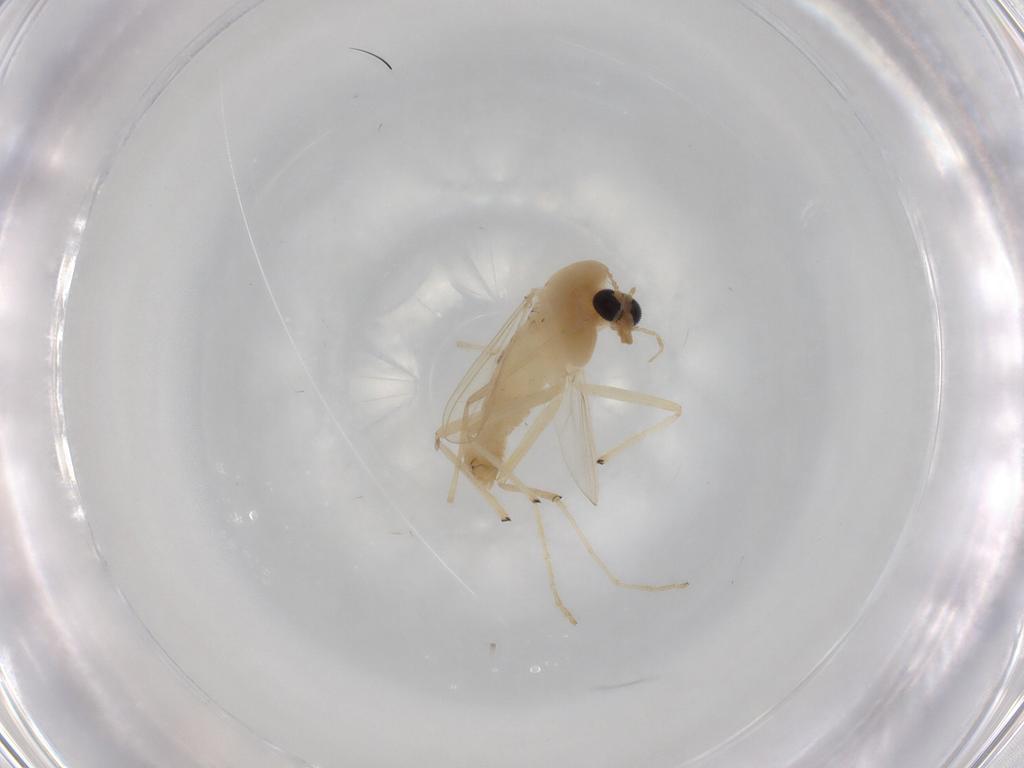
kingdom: Animalia
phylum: Arthropoda
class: Insecta
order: Diptera
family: Chironomidae
